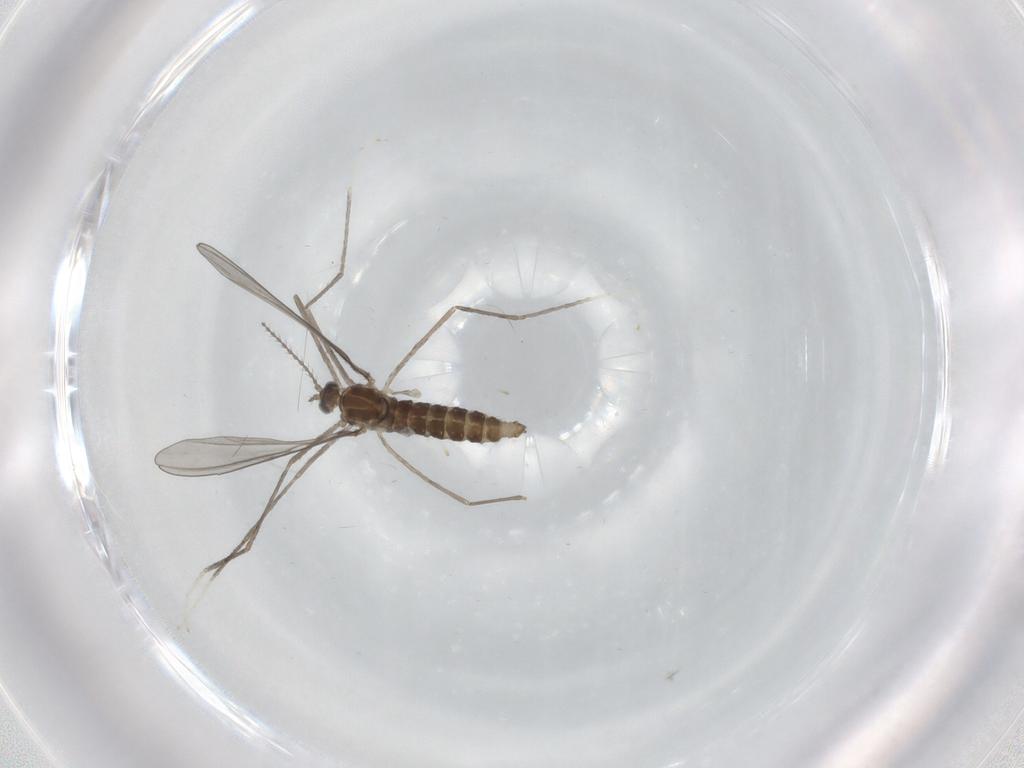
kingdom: Animalia
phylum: Arthropoda
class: Insecta
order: Diptera
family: Cecidomyiidae
